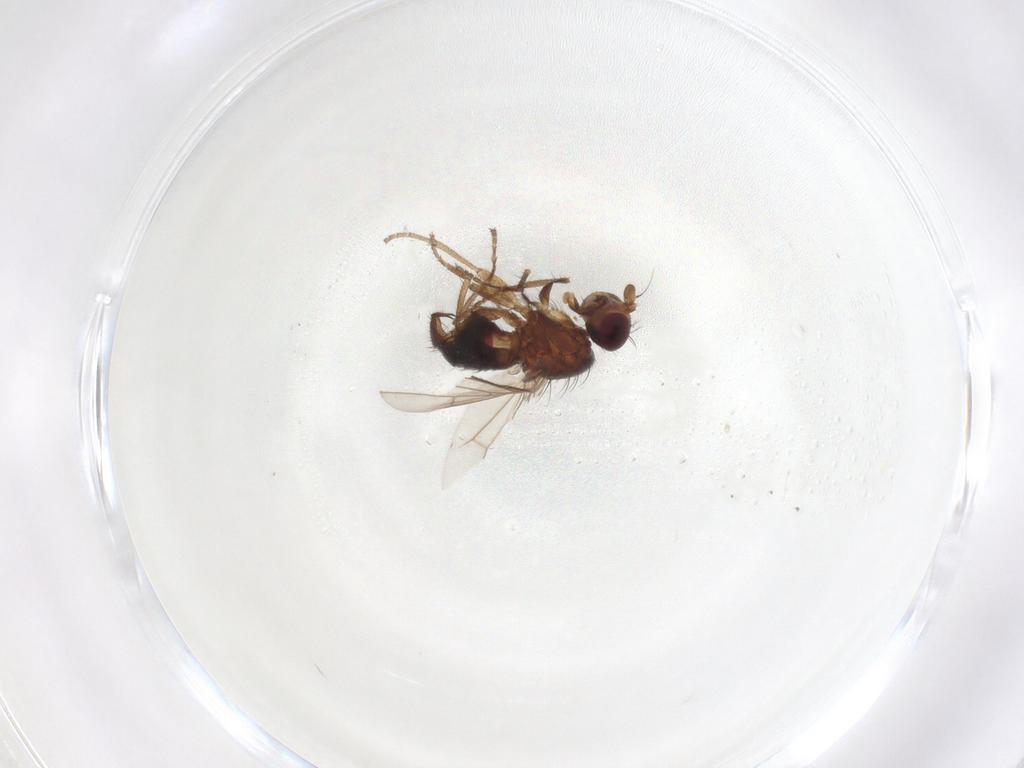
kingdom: Animalia
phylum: Arthropoda
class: Insecta
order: Diptera
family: Heleomyzidae
